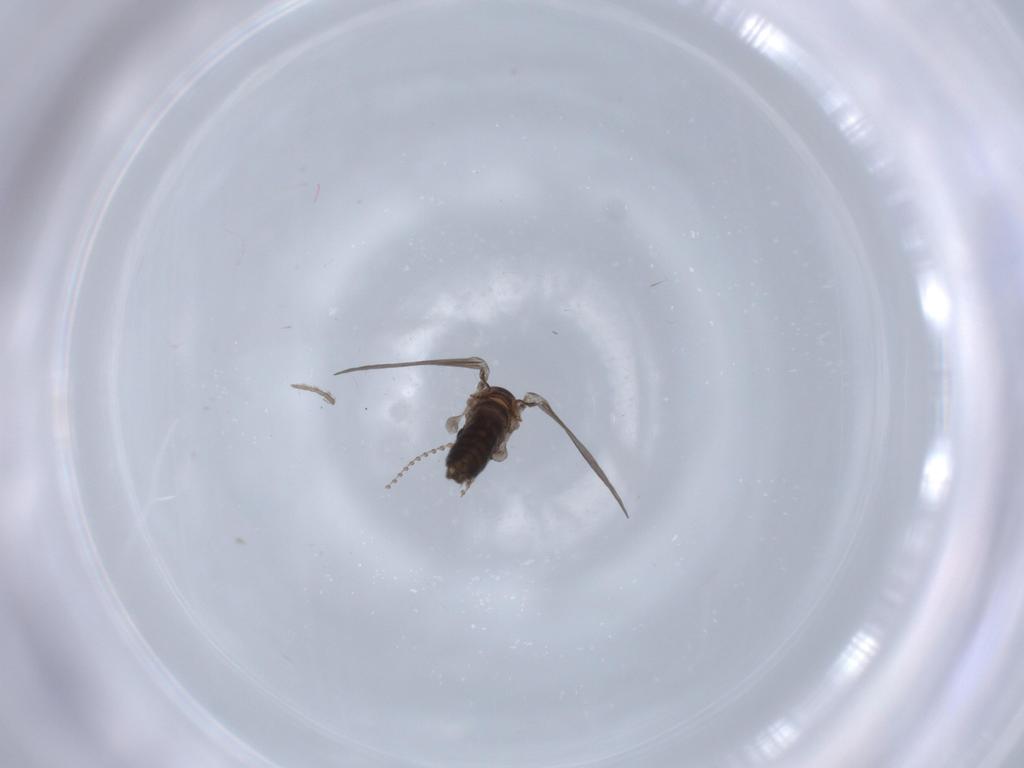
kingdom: Animalia
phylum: Arthropoda
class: Insecta
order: Diptera
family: Psychodidae
